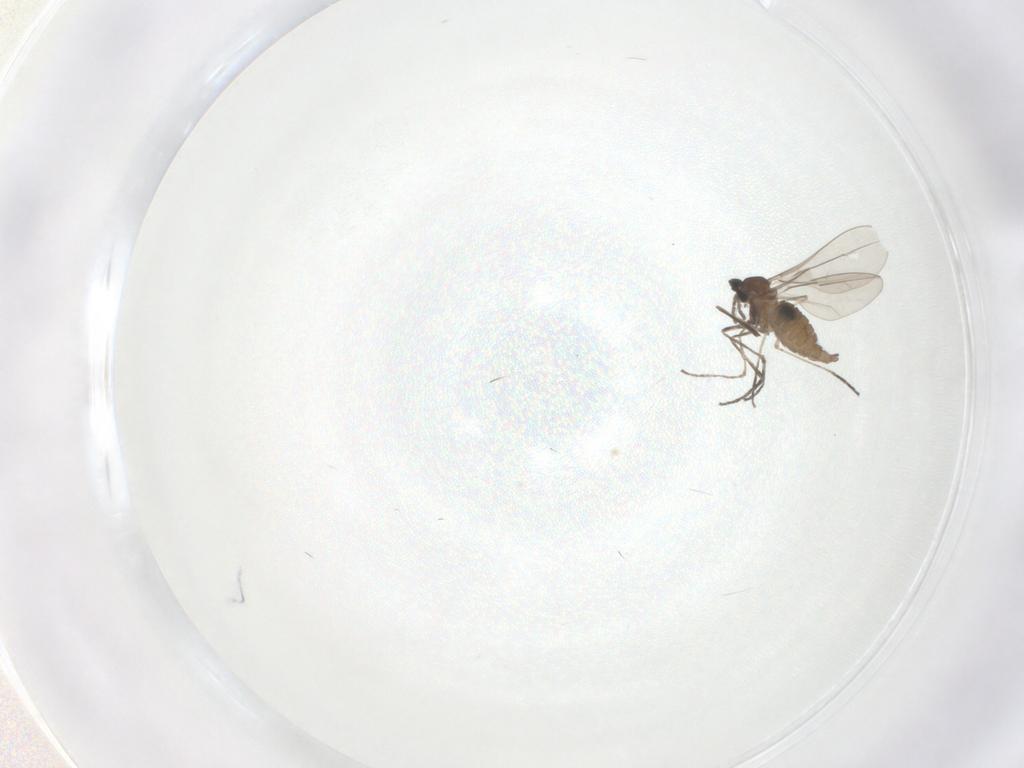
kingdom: Animalia
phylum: Arthropoda
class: Insecta
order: Diptera
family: Cecidomyiidae
